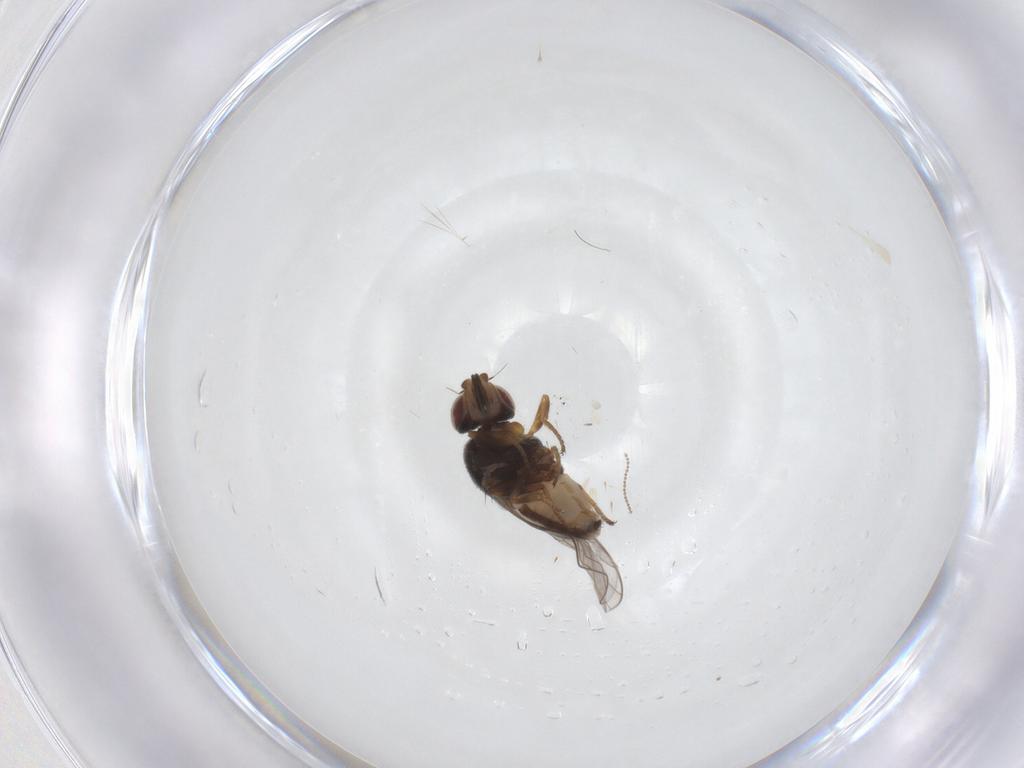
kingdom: Animalia
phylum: Arthropoda
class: Insecta
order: Diptera
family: Chloropidae
